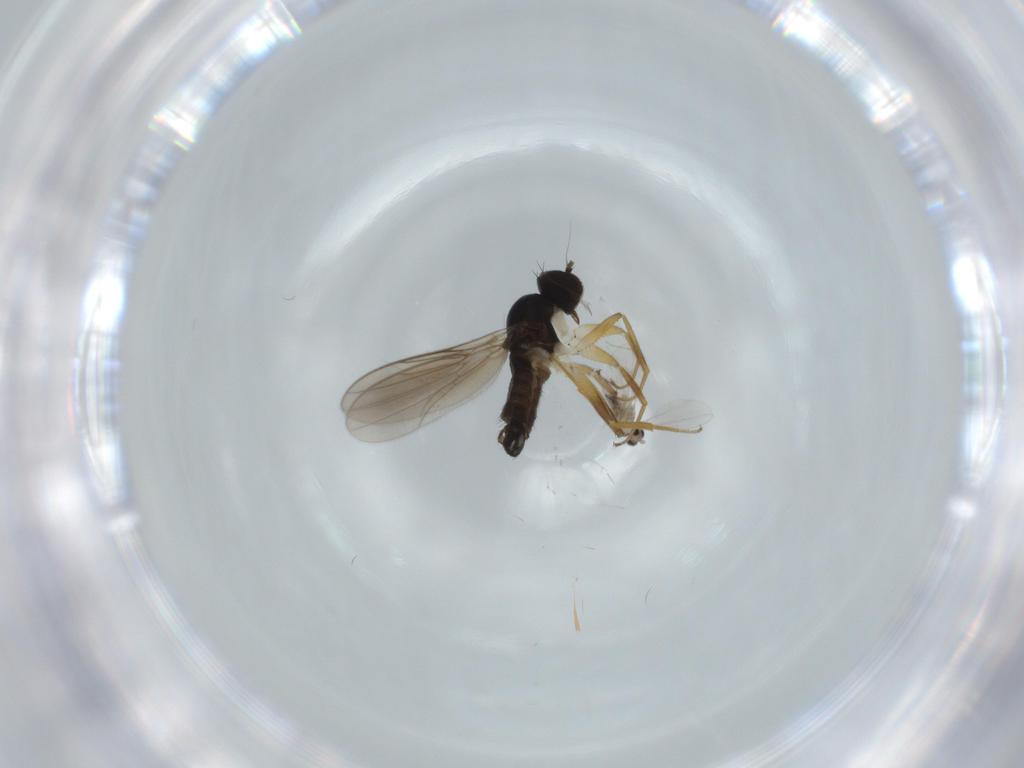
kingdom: Animalia
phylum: Arthropoda
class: Insecta
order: Diptera
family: Hybotidae
